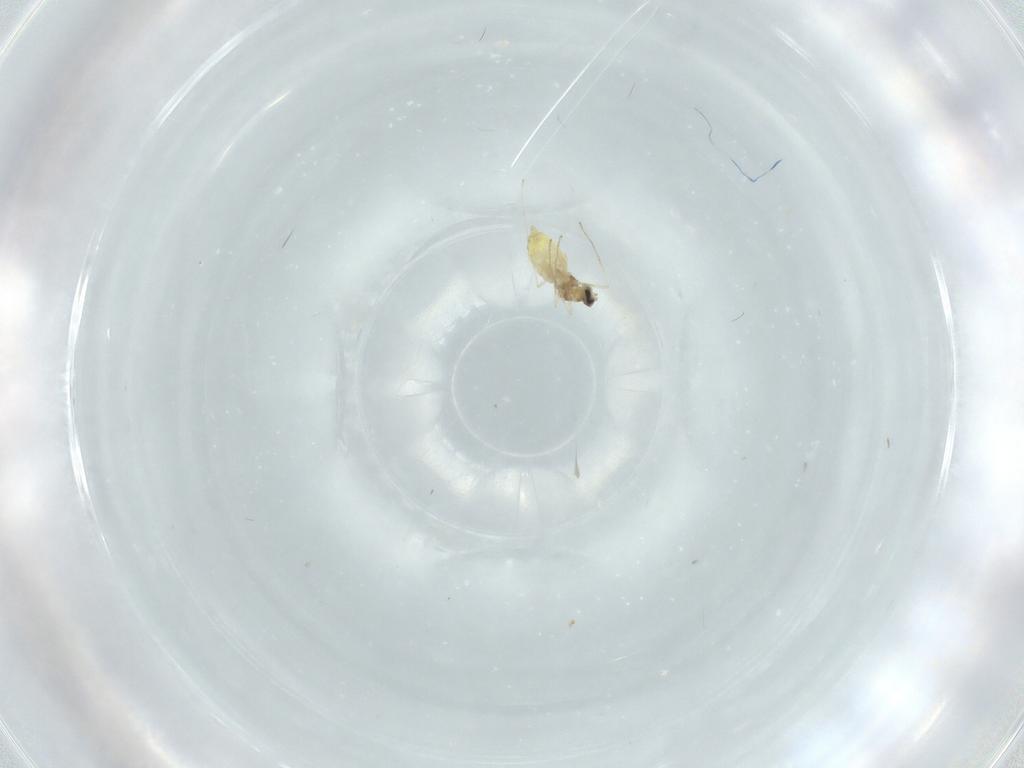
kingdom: Animalia
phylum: Arthropoda
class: Insecta
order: Diptera
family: Cecidomyiidae
